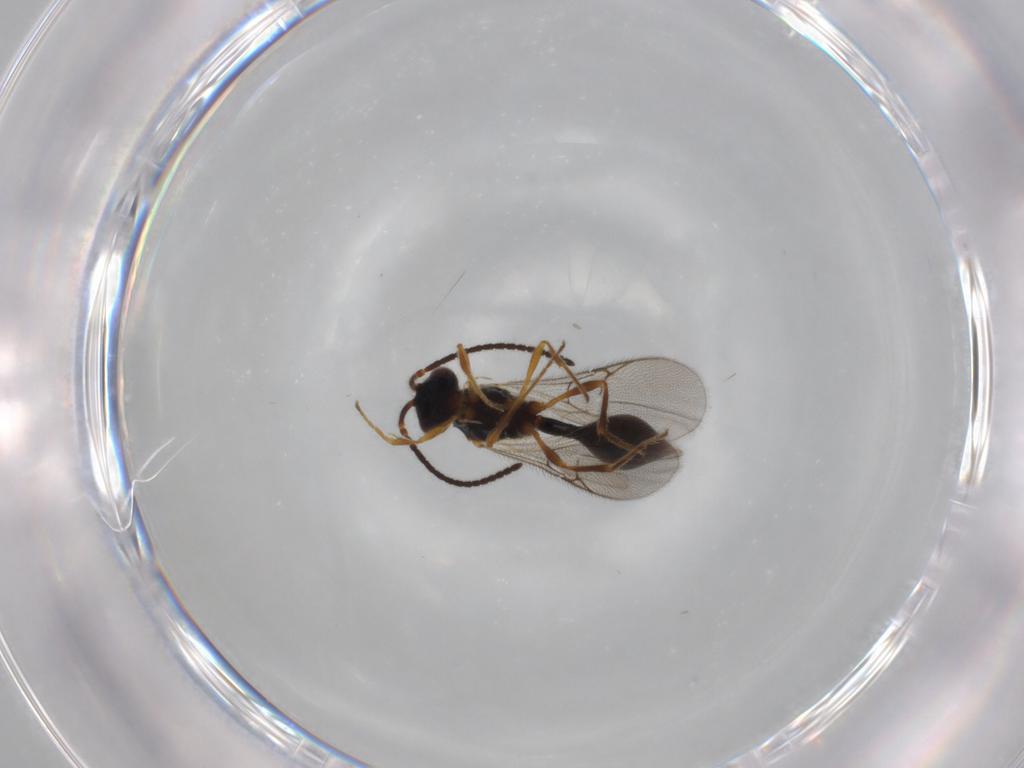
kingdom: Animalia
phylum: Arthropoda
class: Insecta
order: Hymenoptera
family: Diapriidae
